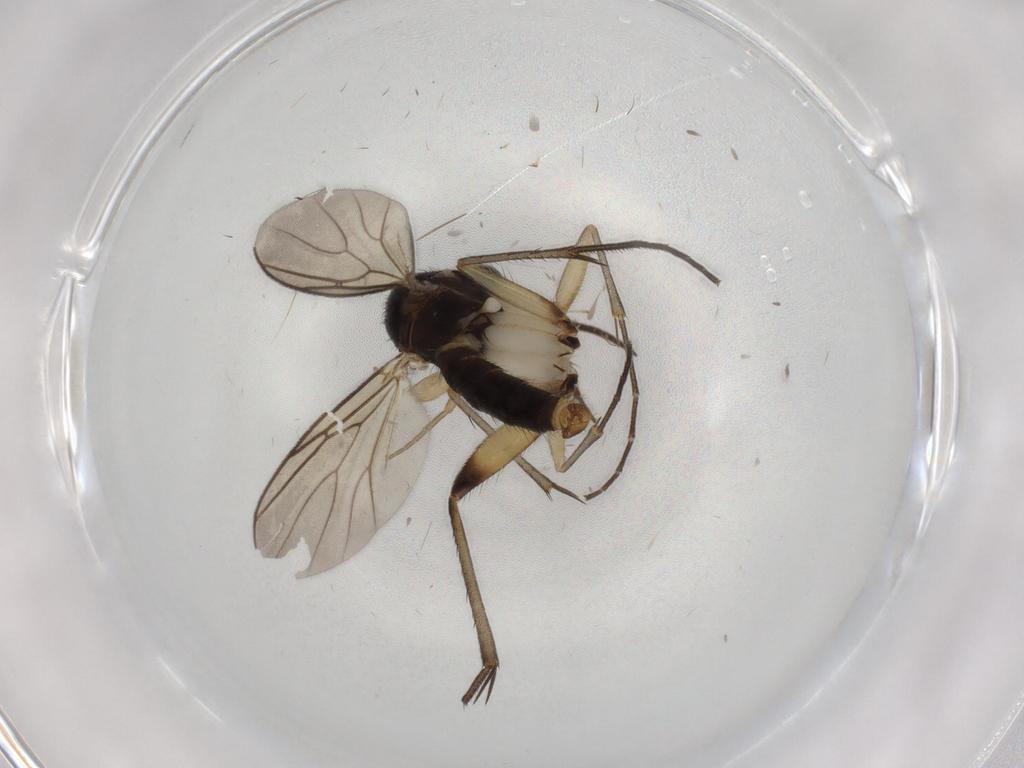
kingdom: Animalia
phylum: Arthropoda
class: Insecta
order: Diptera
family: Mycetophilidae
